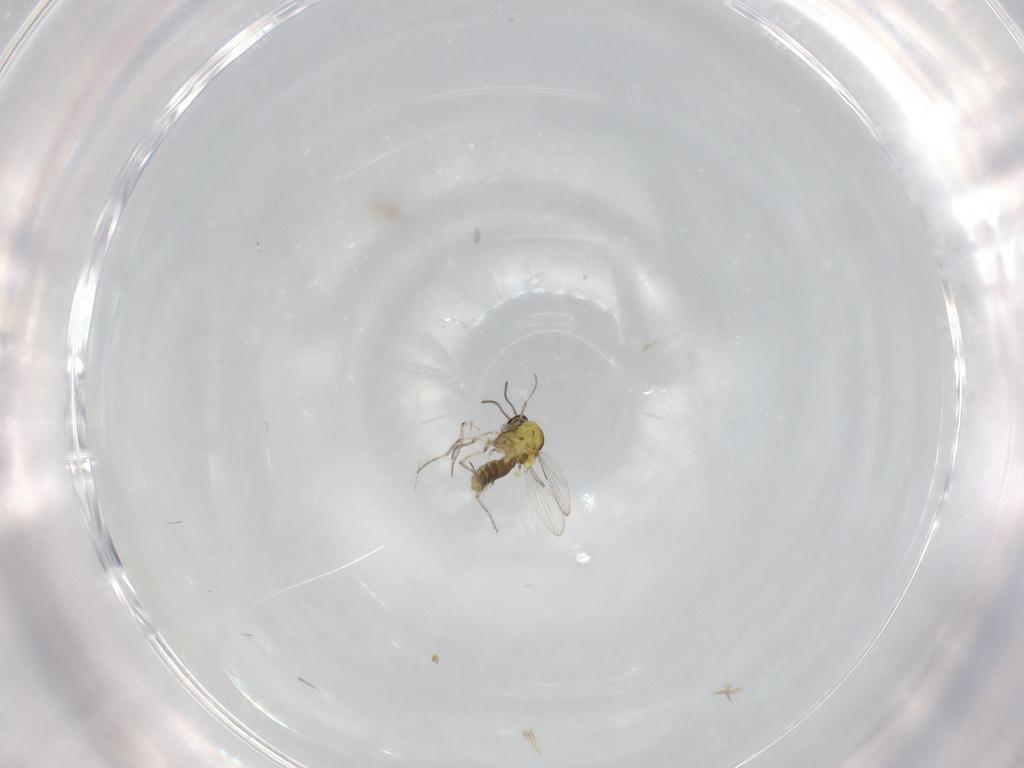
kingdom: Animalia
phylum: Arthropoda
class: Insecta
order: Diptera
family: Ceratopogonidae
